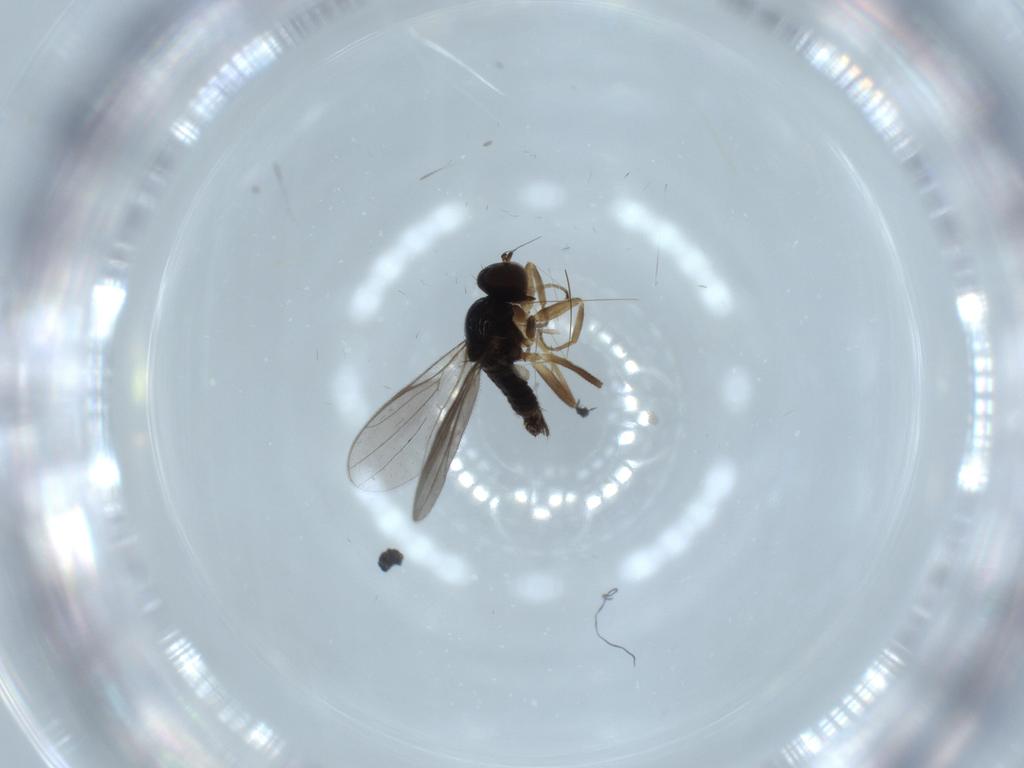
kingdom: Animalia
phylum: Arthropoda
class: Insecta
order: Diptera
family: Hybotidae
